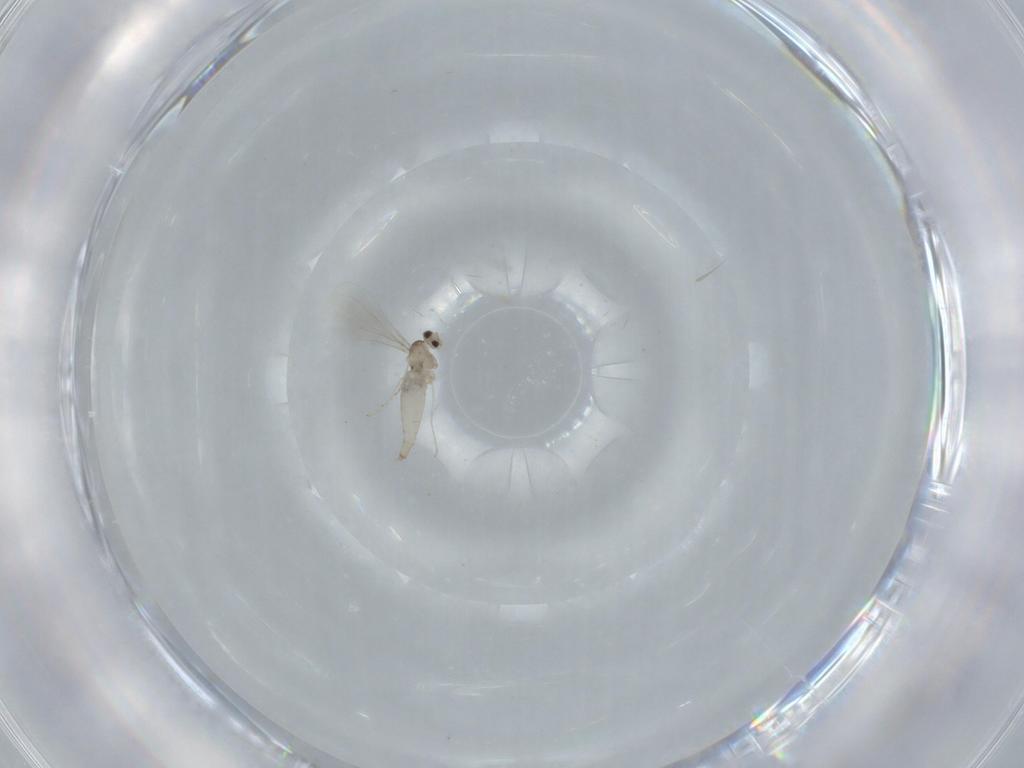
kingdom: Animalia
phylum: Arthropoda
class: Insecta
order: Diptera
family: Cecidomyiidae
